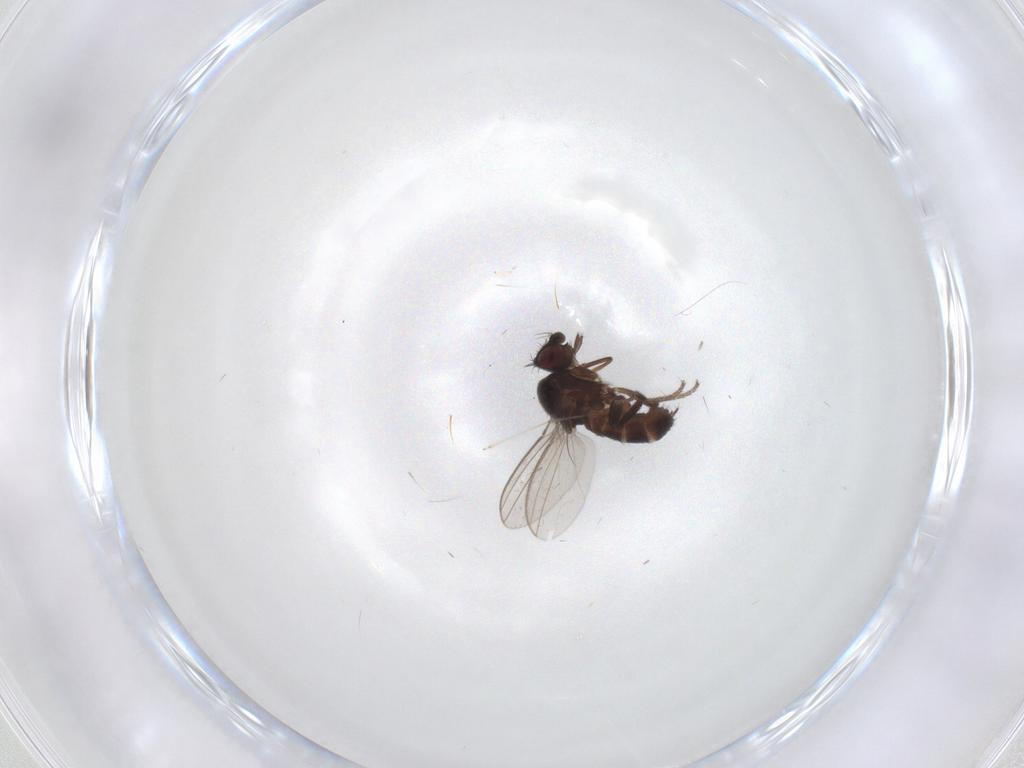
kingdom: Animalia
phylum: Arthropoda
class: Insecta
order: Diptera
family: Milichiidae
